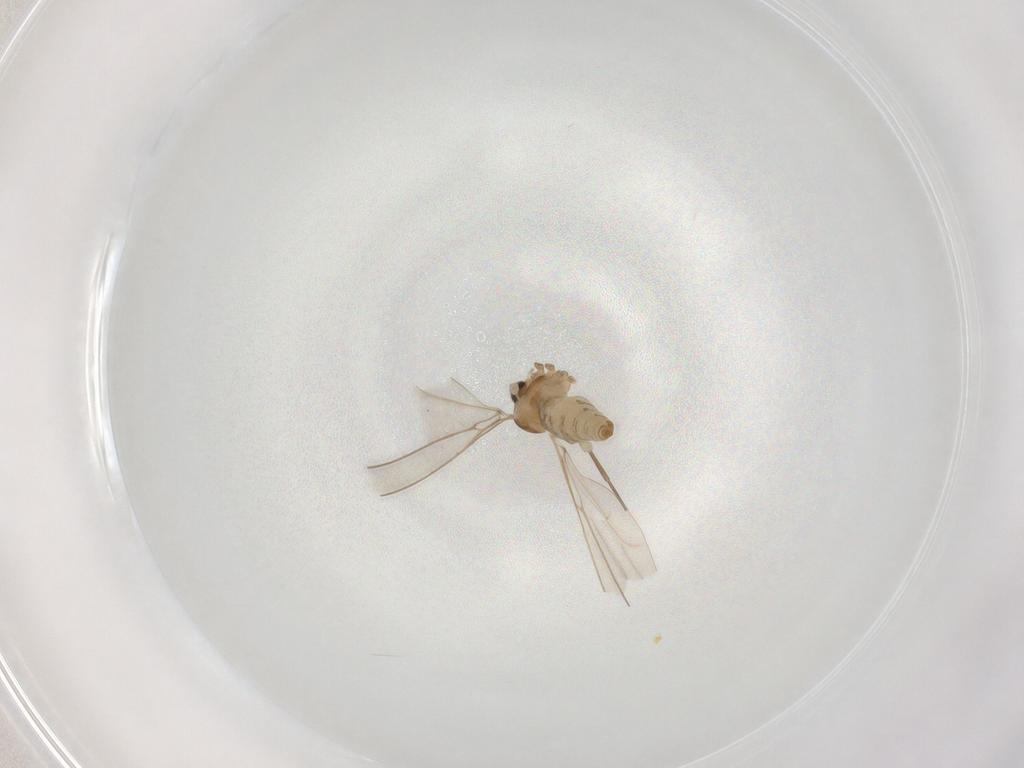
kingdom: Animalia
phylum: Arthropoda
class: Insecta
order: Diptera
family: Cecidomyiidae
